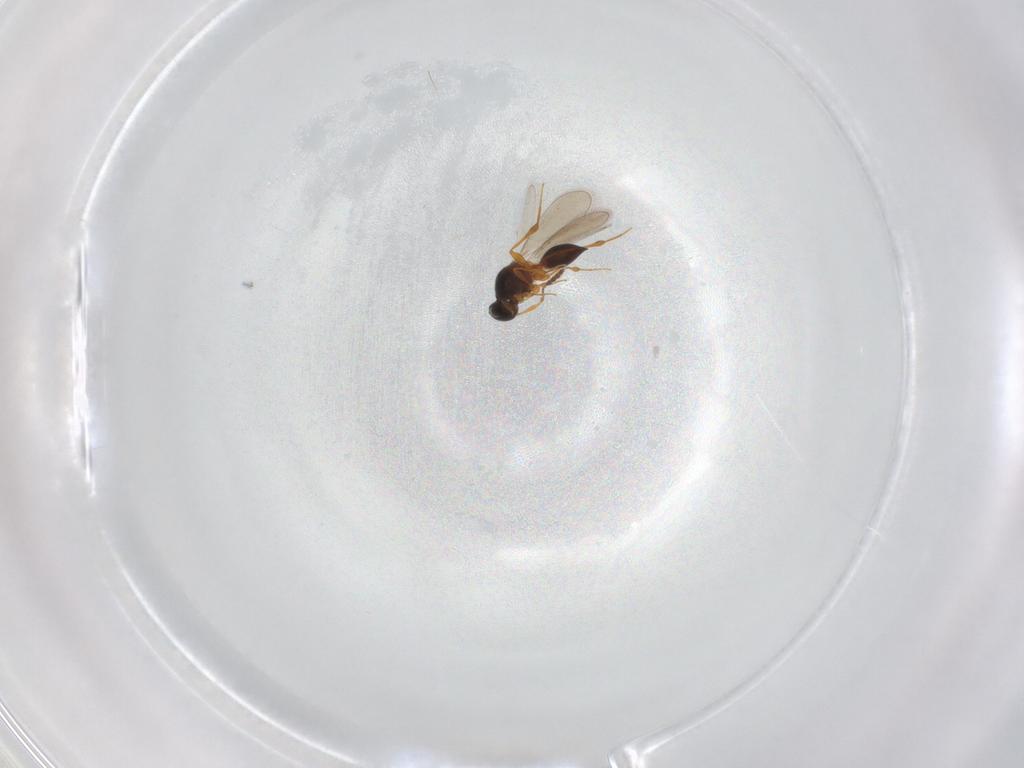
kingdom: Animalia
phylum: Arthropoda
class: Insecta
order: Hymenoptera
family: Platygastridae
